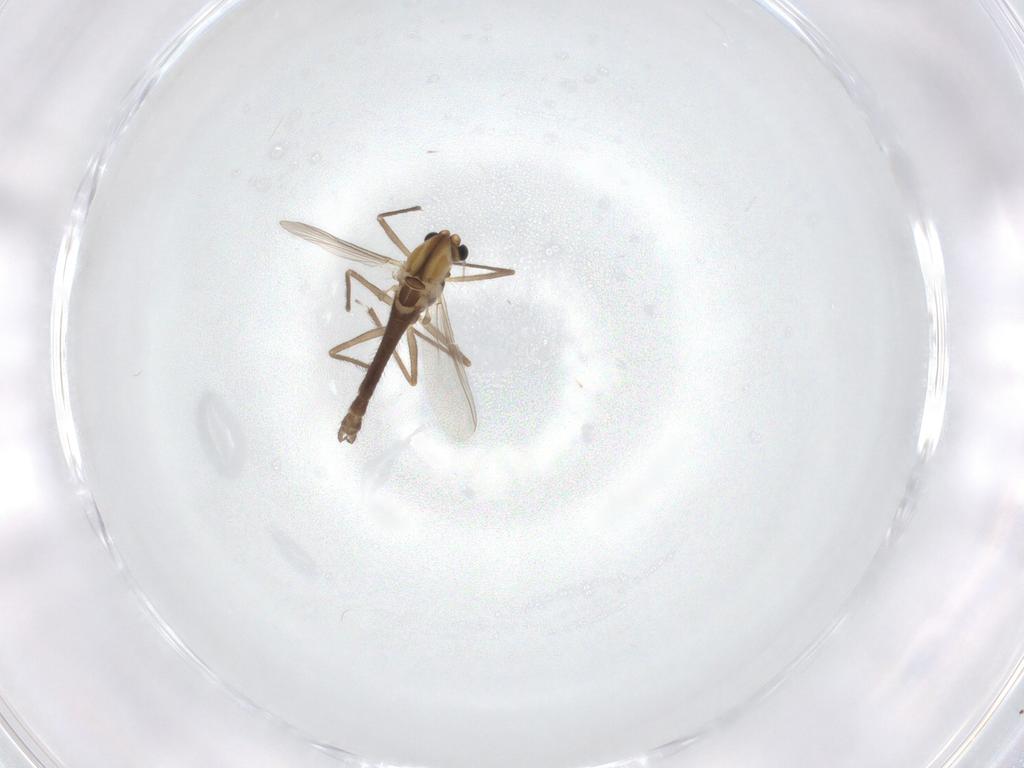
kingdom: Animalia
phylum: Arthropoda
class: Insecta
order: Diptera
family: Chironomidae
